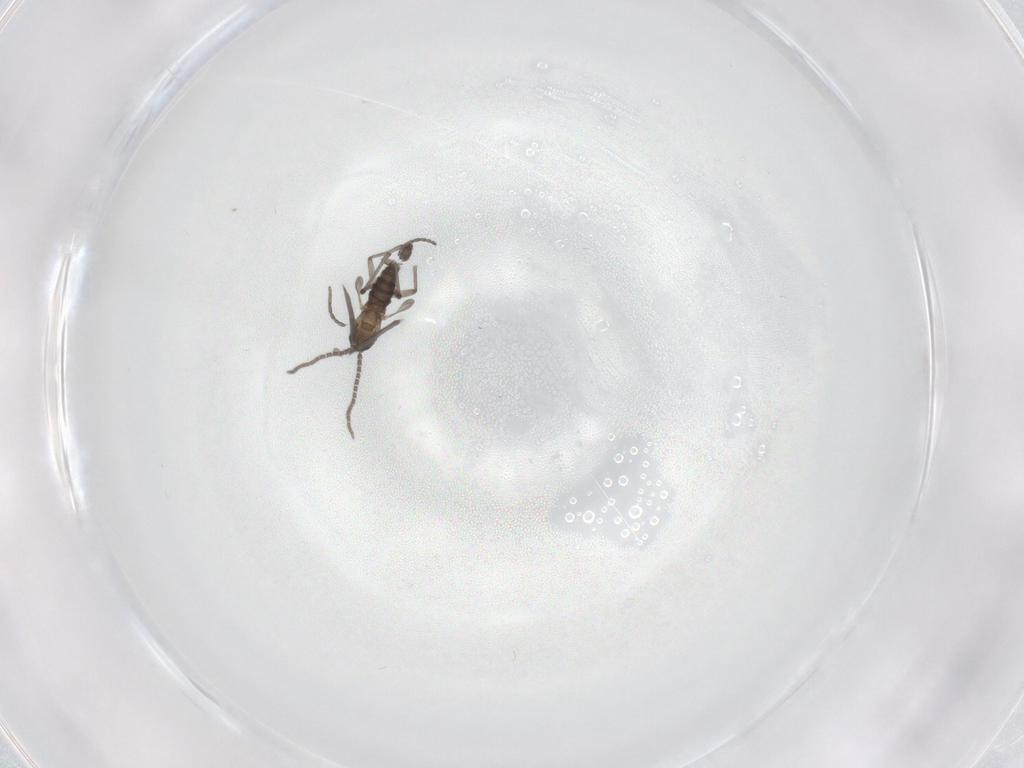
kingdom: Animalia
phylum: Arthropoda
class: Insecta
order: Diptera
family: Sciaridae
